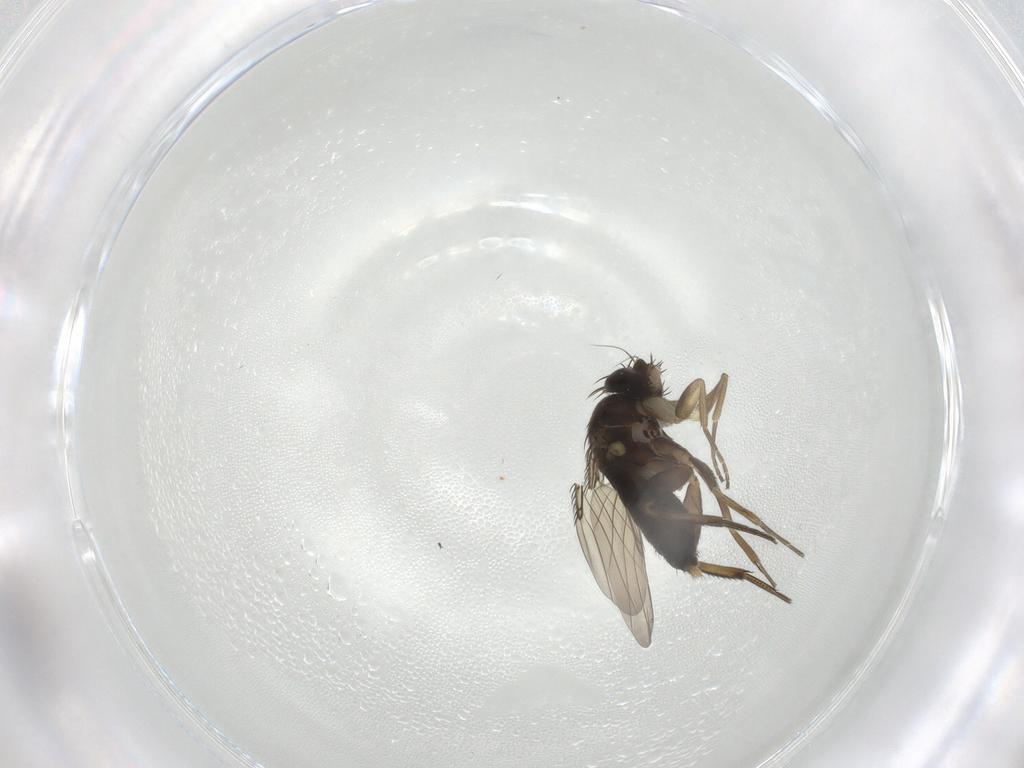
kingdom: Animalia
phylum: Arthropoda
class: Insecta
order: Diptera
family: Phoridae
